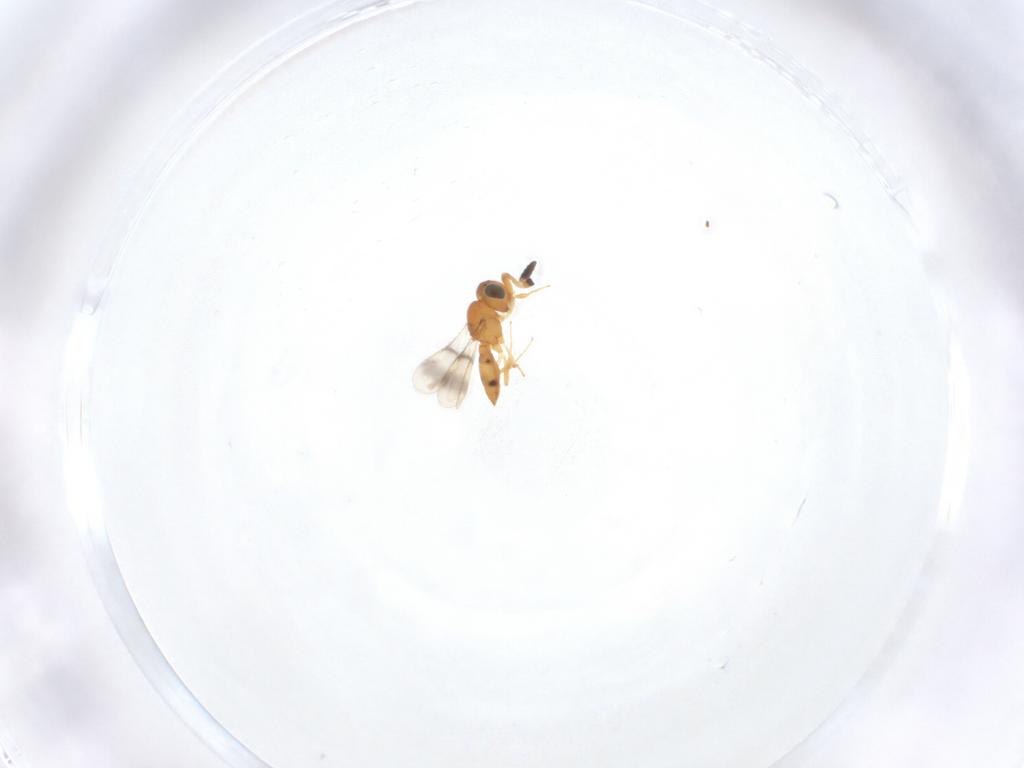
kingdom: Animalia
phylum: Arthropoda
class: Insecta
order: Hymenoptera
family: Scelionidae
